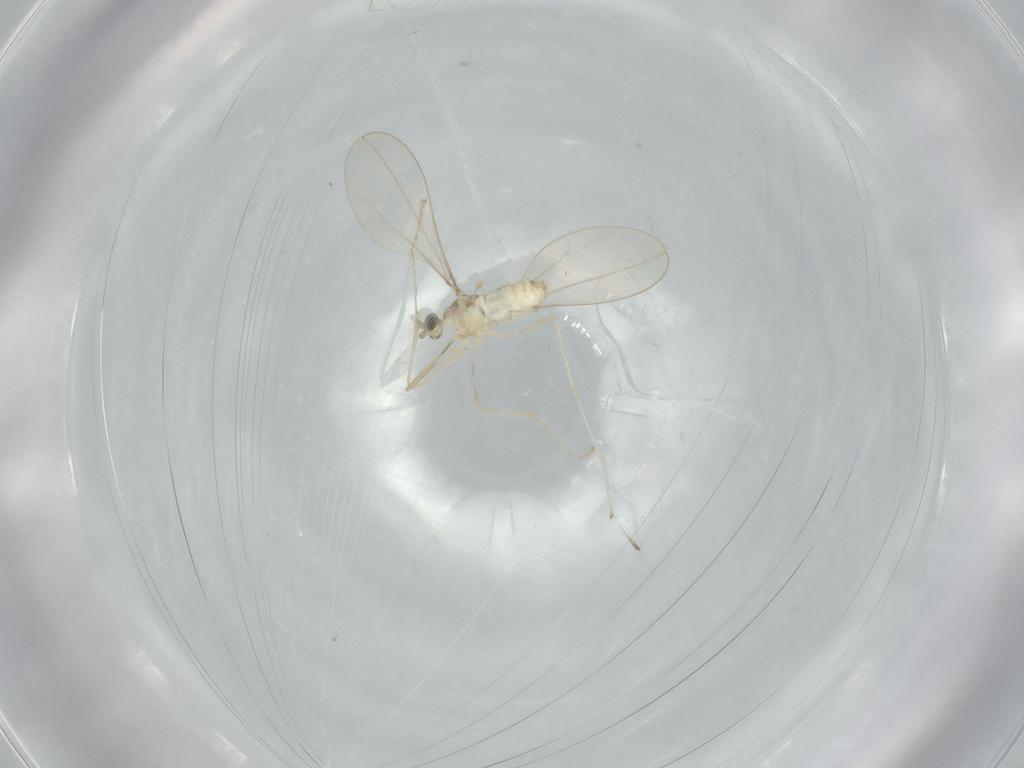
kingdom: Animalia
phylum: Arthropoda
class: Insecta
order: Diptera
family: Cecidomyiidae
